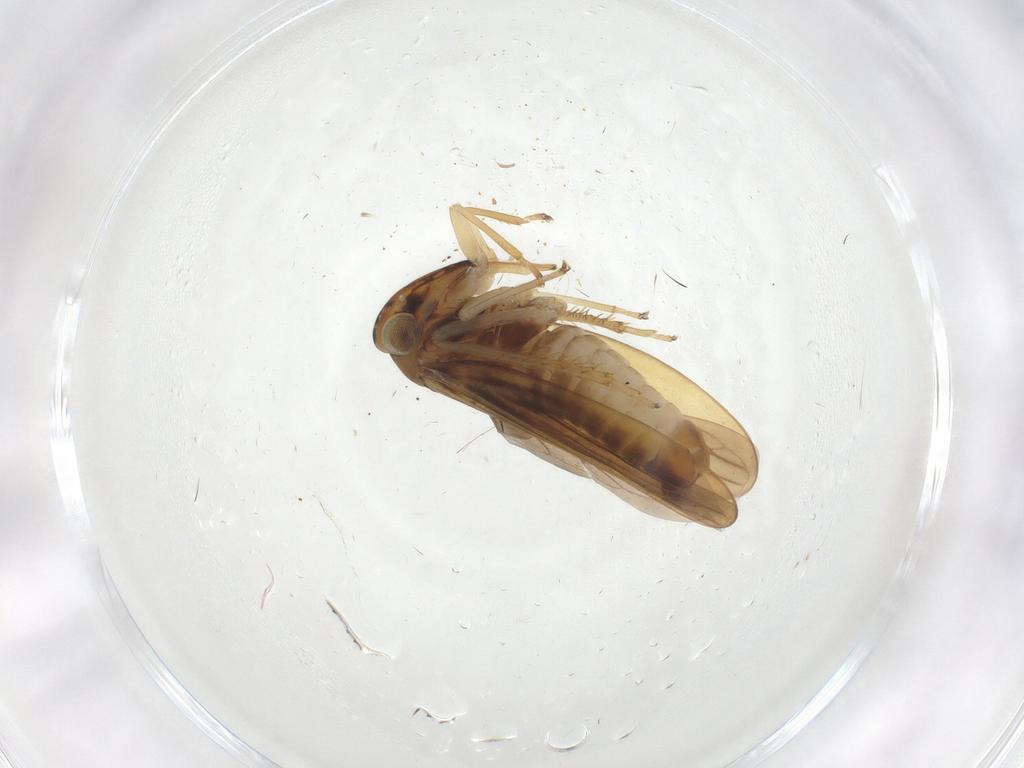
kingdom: Animalia
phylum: Arthropoda
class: Insecta
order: Hemiptera
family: Cicadellidae
